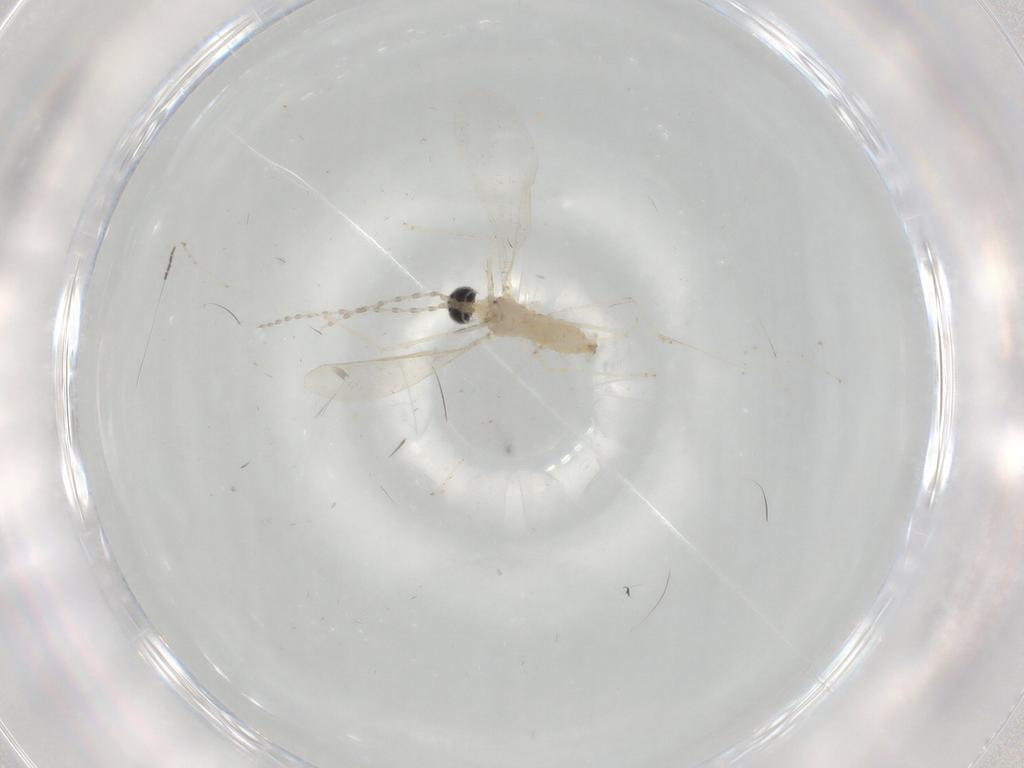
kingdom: Animalia
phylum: Arthropoda
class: Insecta
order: Diptera
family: Cecidomyiidae
